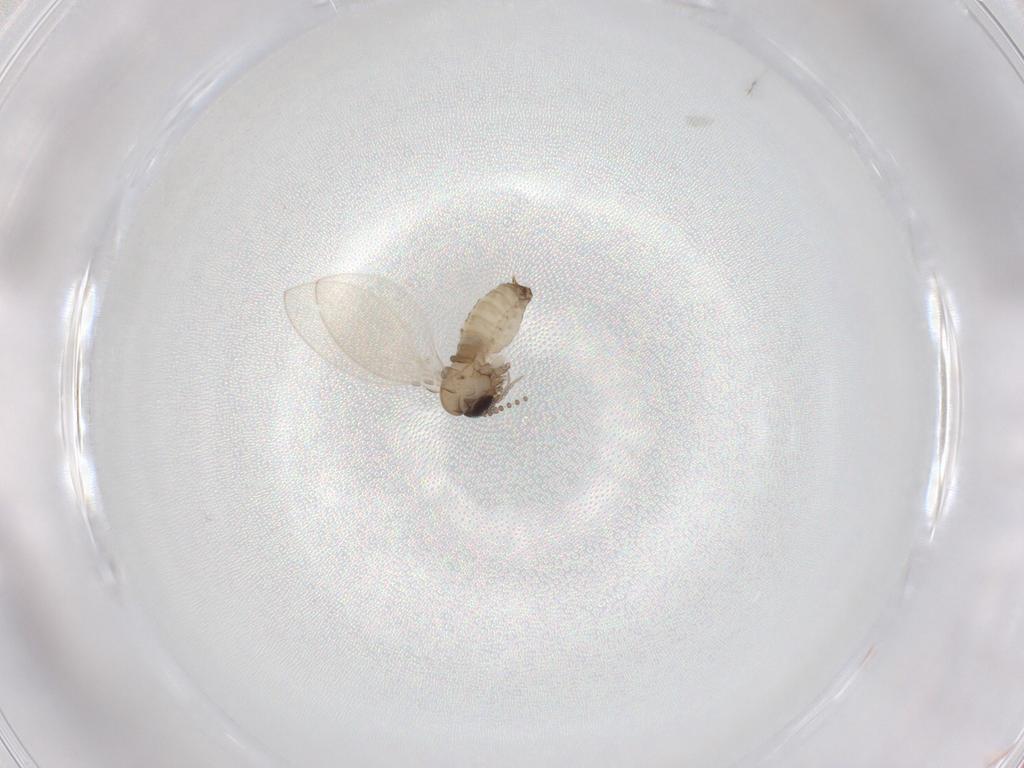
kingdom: Animalia
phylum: Arthropoda
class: Insecta
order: Diptera
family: Psychodidae
